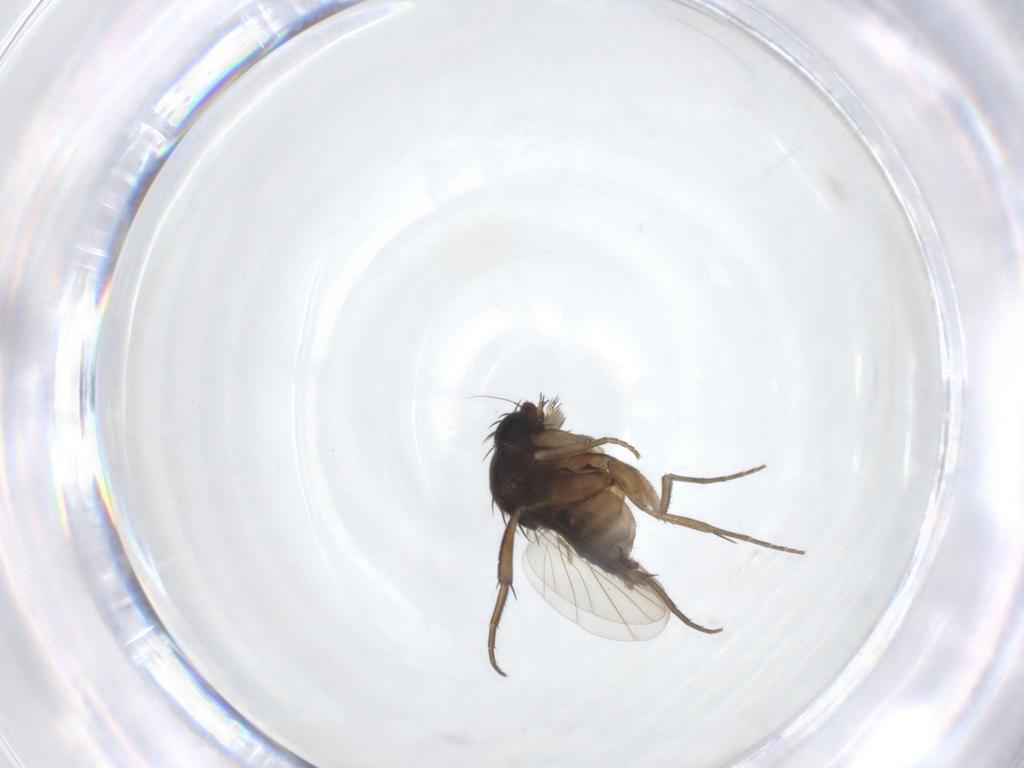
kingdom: Animalia
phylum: Arthropoda
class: Insecta
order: Diptera
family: Phoridae
